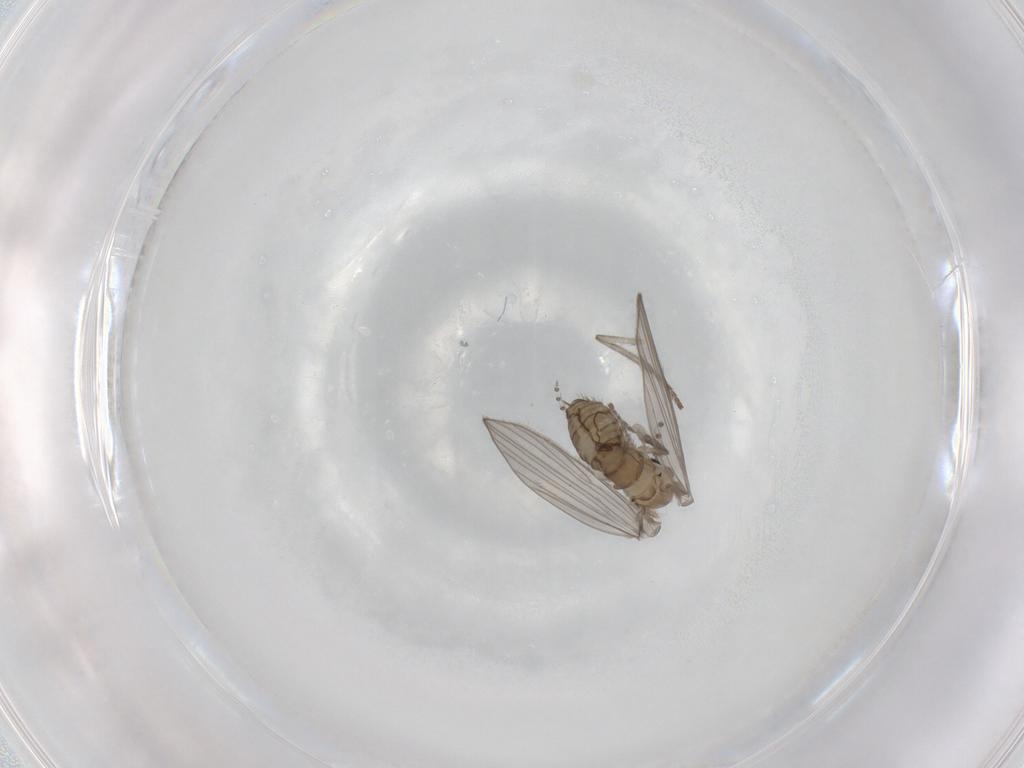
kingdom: Animalia
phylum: Arthropoda
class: Insecta
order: Diptera
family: Psychodidae
